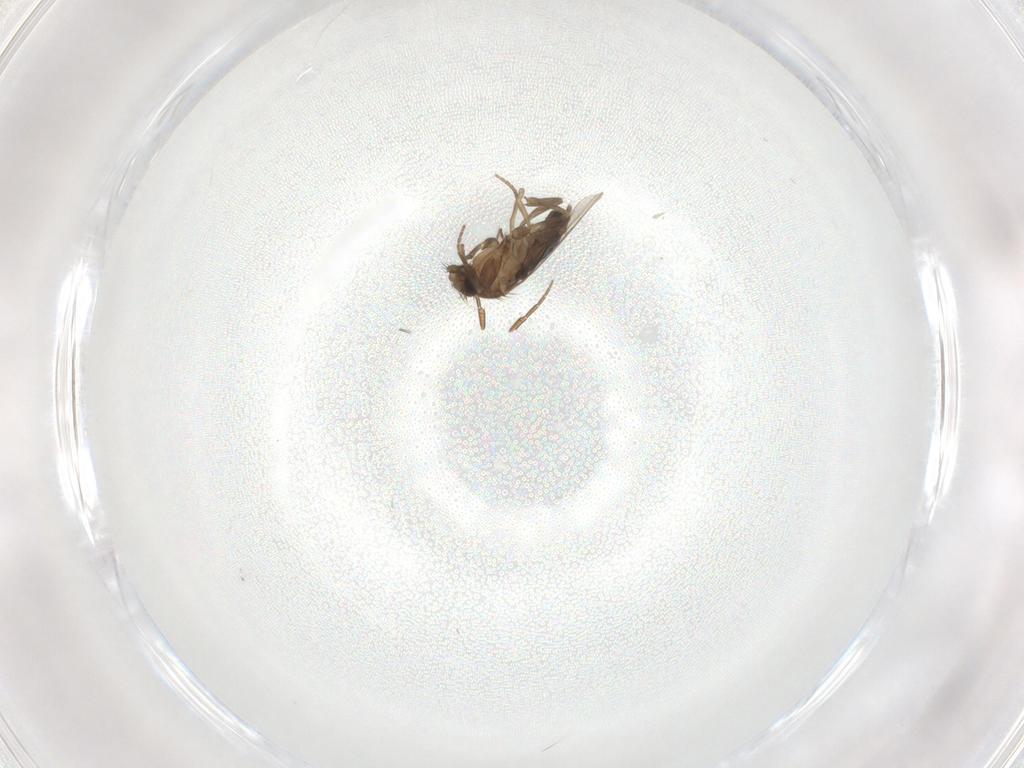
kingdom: Animalia
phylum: Arthropoda
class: Insecta
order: Diptera
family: Phoridae
